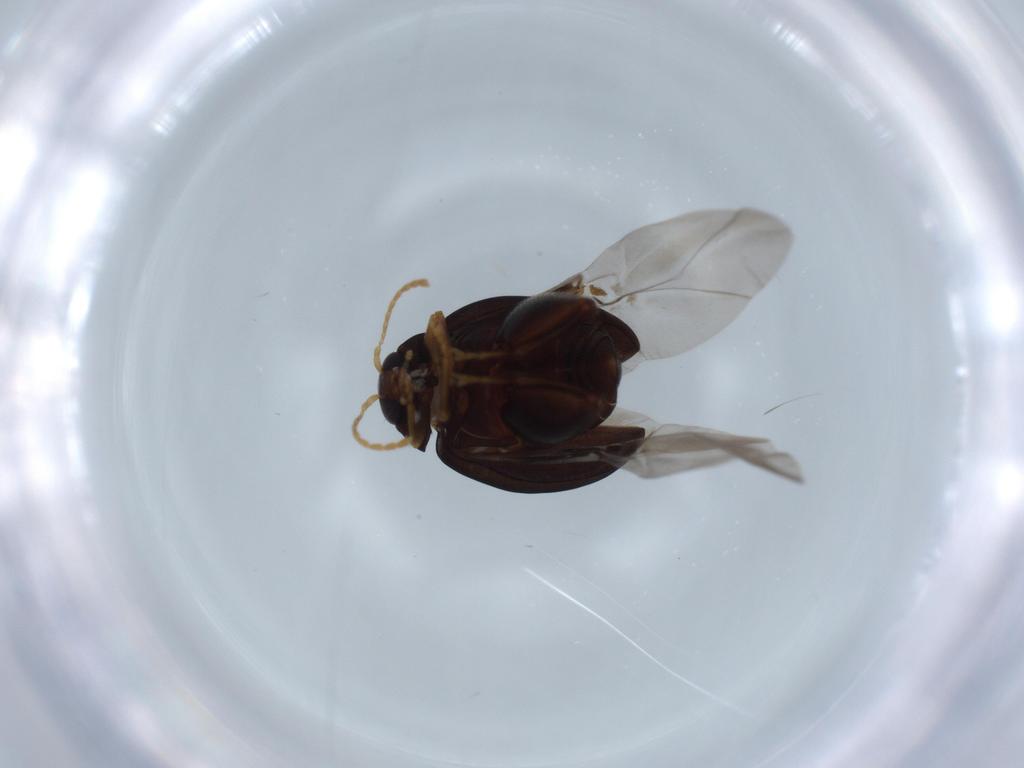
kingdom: Animalia
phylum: Arthropoda
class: Insecta
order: Coleoptera
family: Chrysomelidae
